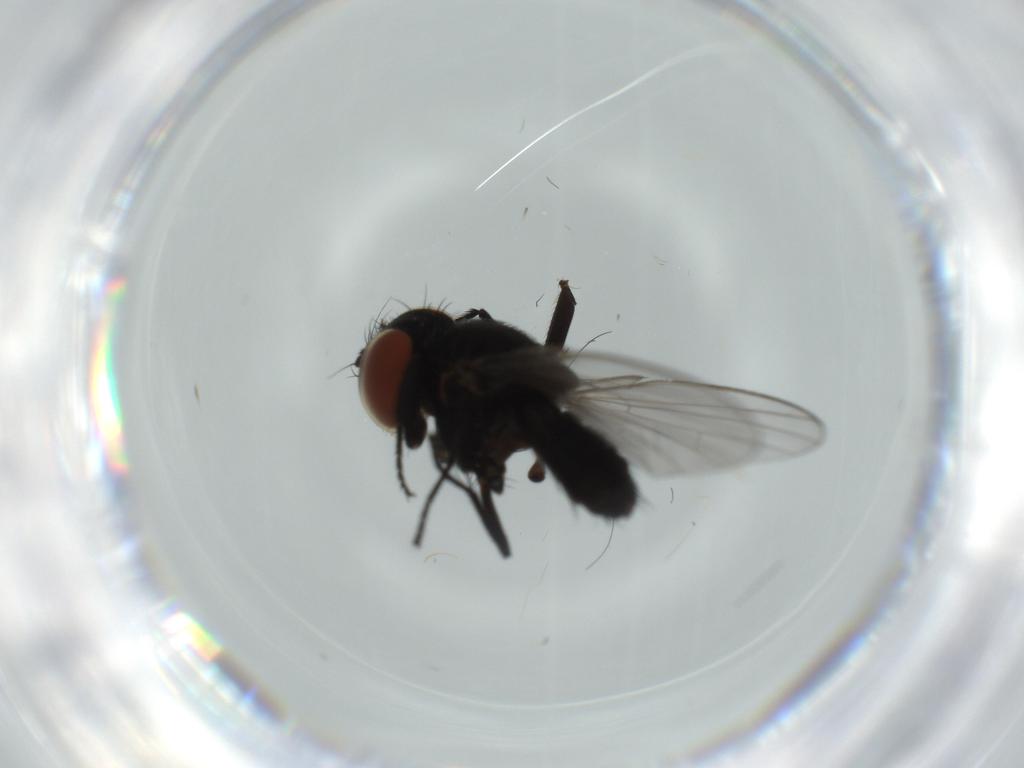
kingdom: Animalia
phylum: Arthropoda
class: Insecta
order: Diptera
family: Milichiidae
